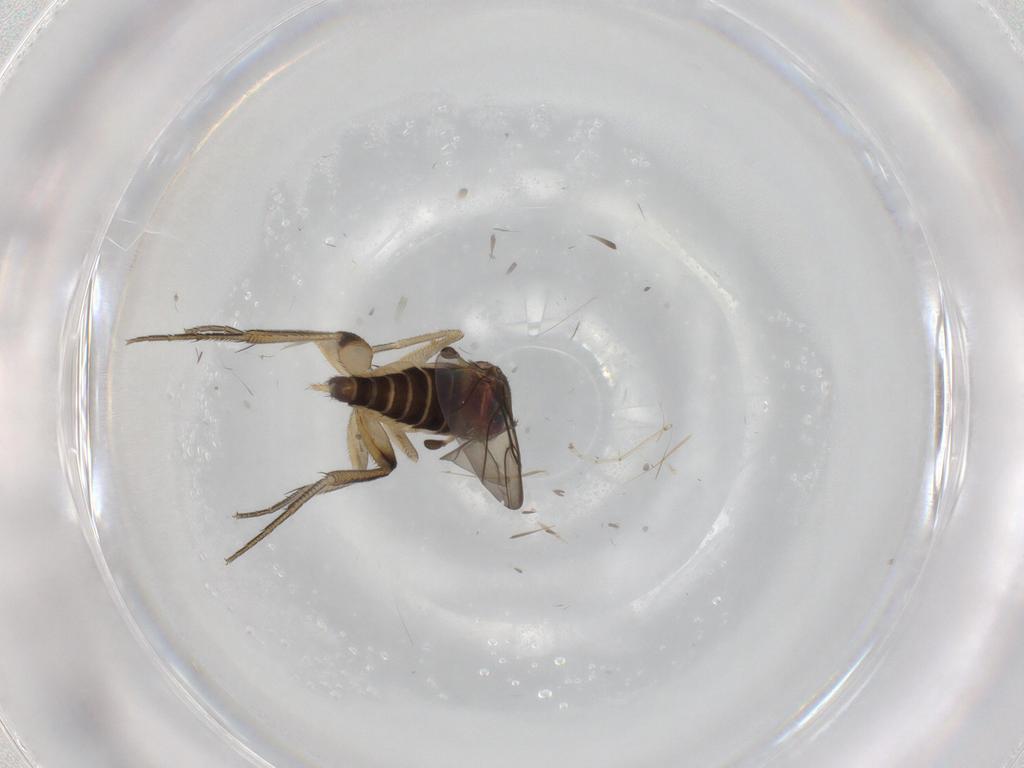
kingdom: Animalia
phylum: Arthropoda
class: Insecta
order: Diptera
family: Phoridae
